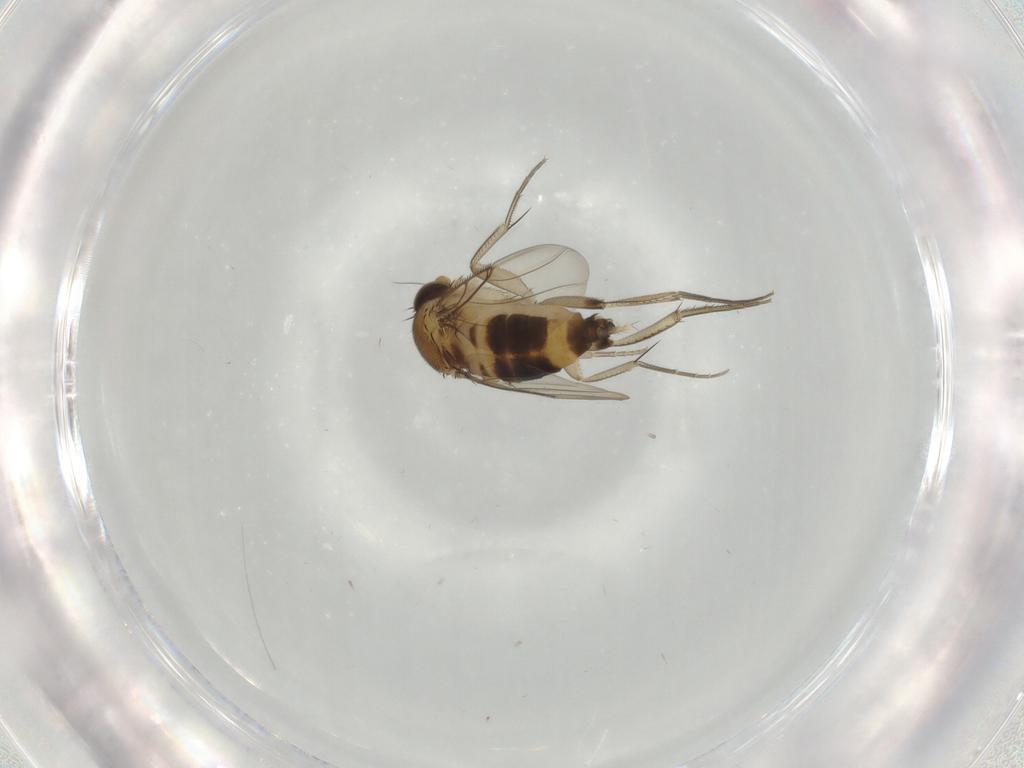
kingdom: Animalia
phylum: Arthropoda
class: Insecta
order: Diptera
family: Phoridae
